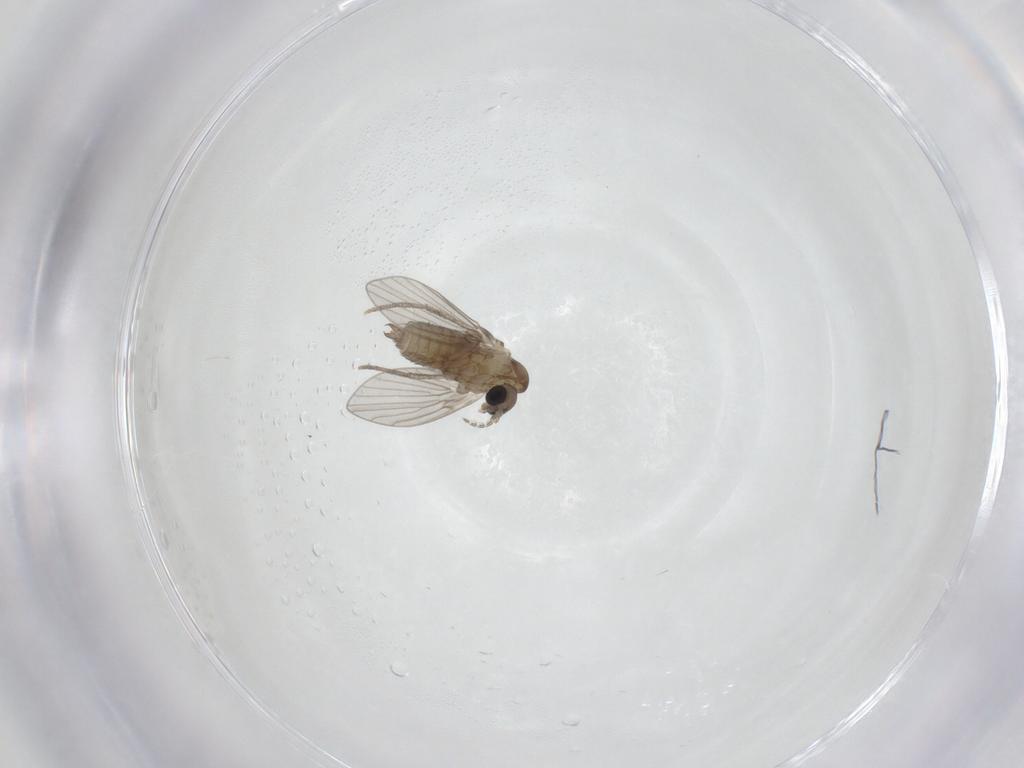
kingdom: Animalia
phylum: Arthropoda
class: Insecta
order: Diptera
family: Psychodidae
